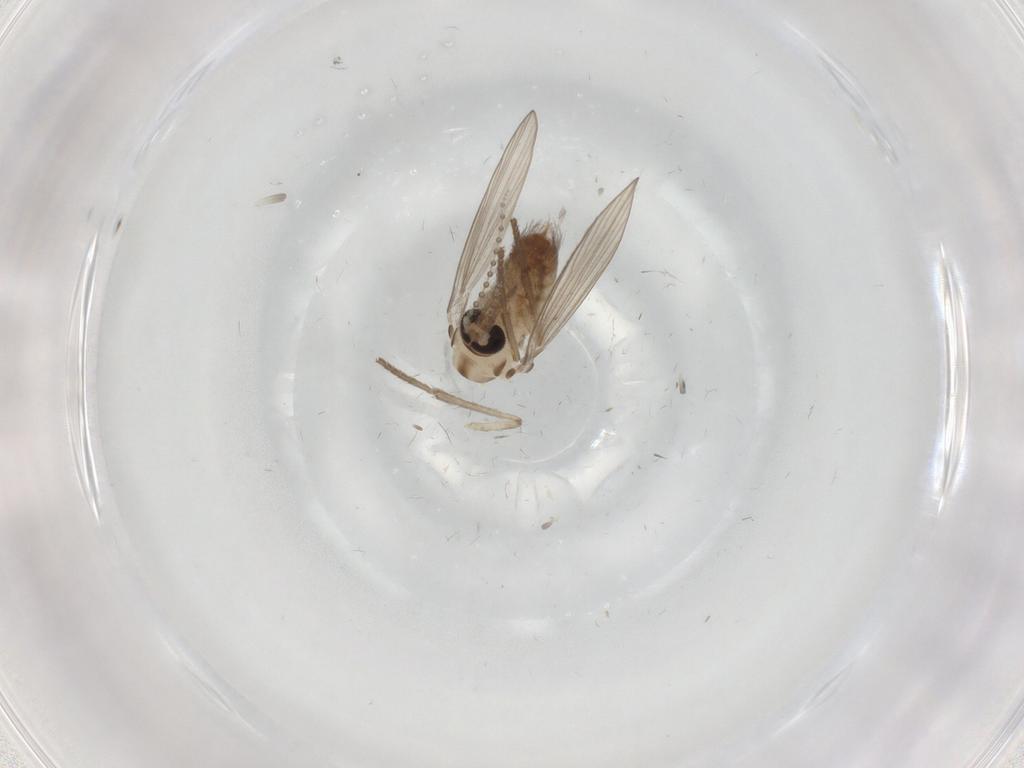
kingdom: Animalia
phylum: Arthropoda
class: Insecta
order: Diptera
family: Psychodidae
